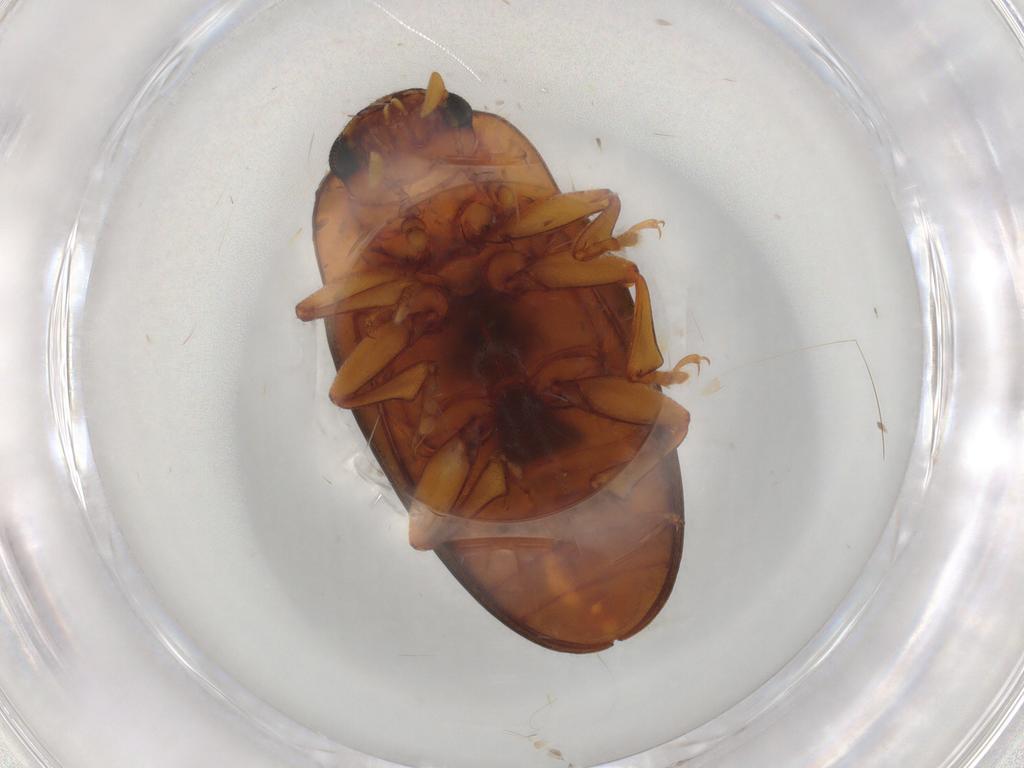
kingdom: Animalia
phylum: Arthropoda
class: Insecta
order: Coleoptera
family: Erotylidae
